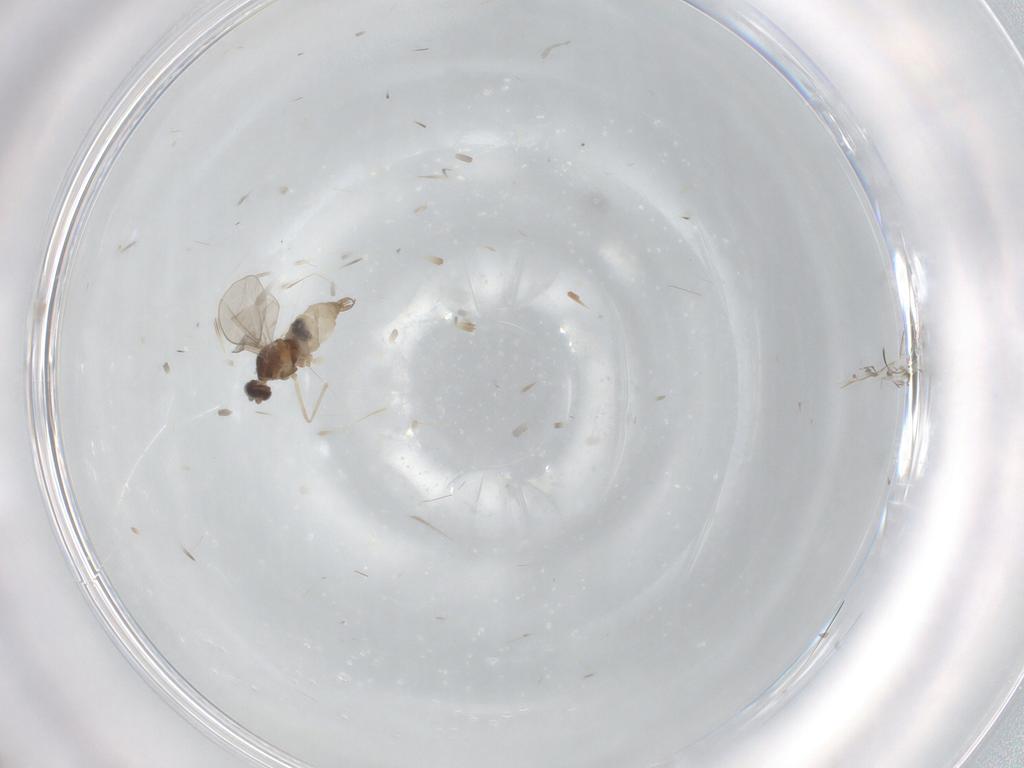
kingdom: Animalia
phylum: Arthropoda
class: Insecta
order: Diptera
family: Cecidomyiidae
